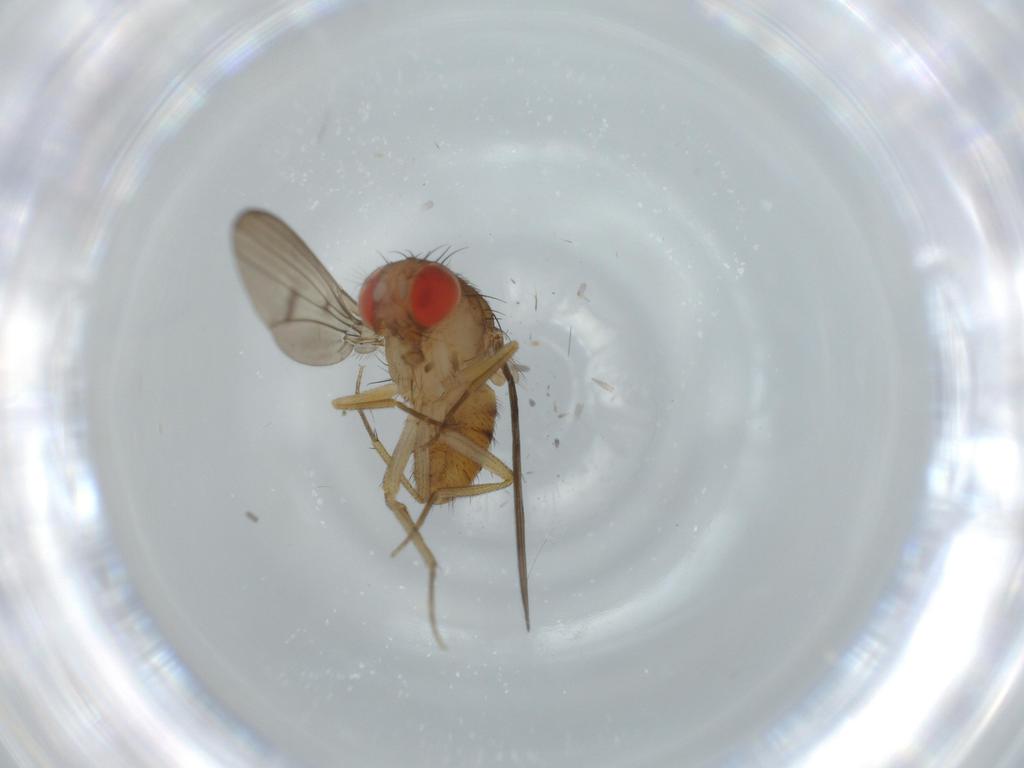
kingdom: Animalia
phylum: Arthropoda
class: Insecta
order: Diptera
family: Drosophilidae
